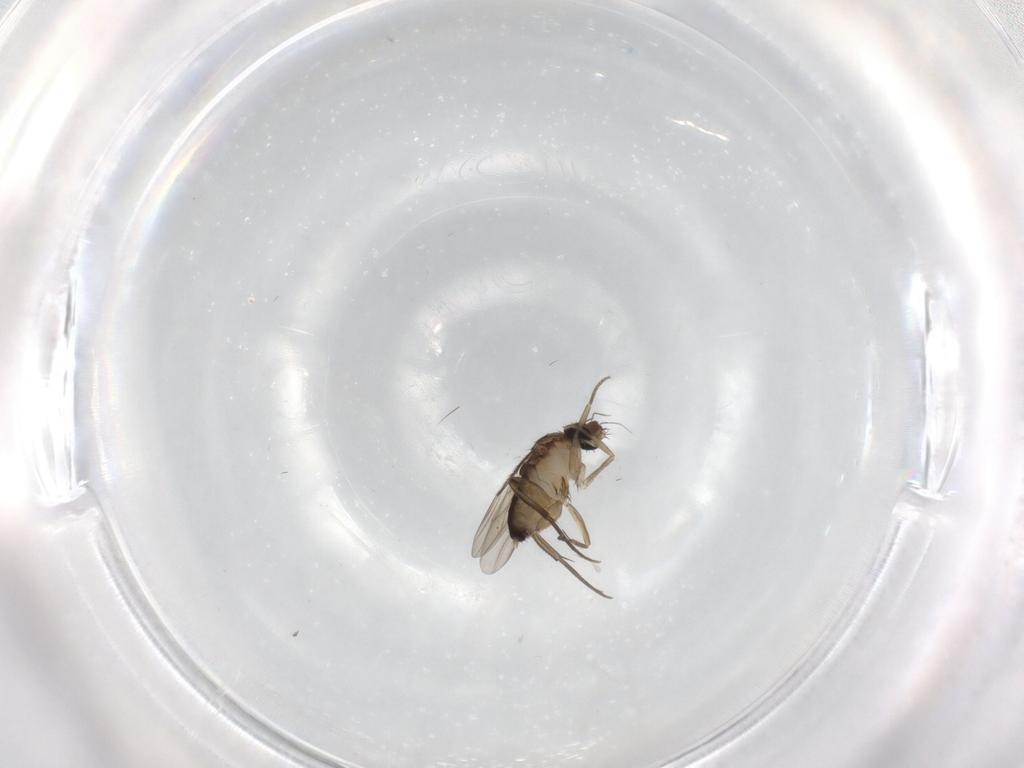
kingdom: Animalia
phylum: Arthropoda
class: Insecta
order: Diptera
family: Phoridae
